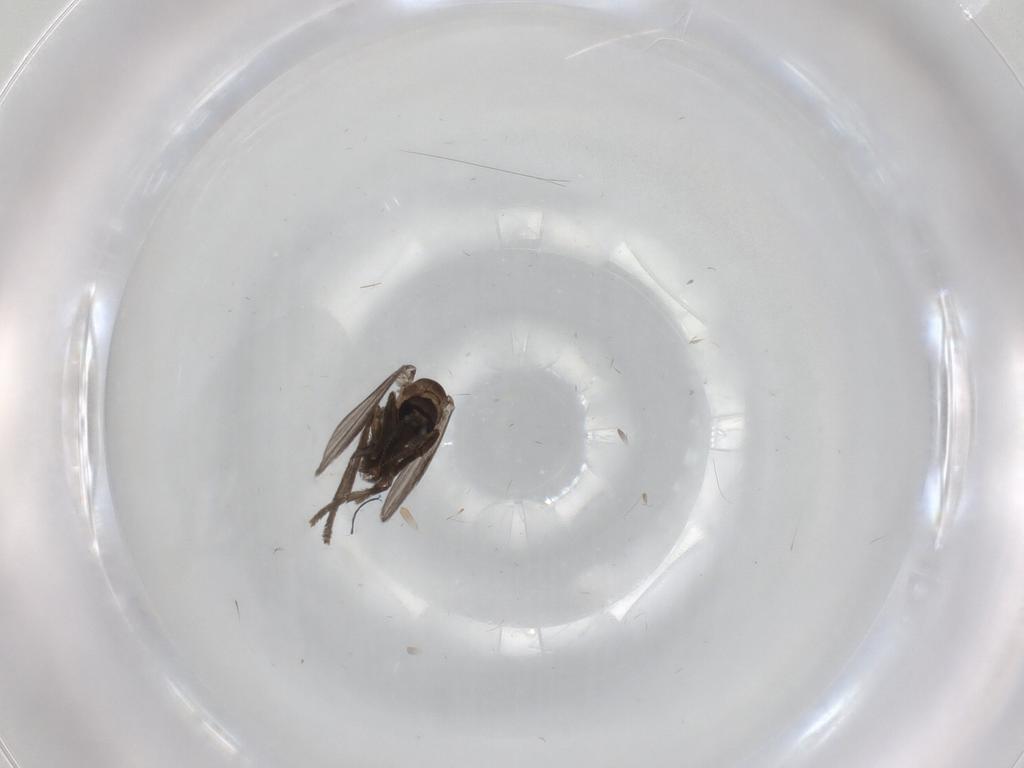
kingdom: Animalia
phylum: Arthropoda
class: Insecta
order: Diptera
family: Psychodidae
